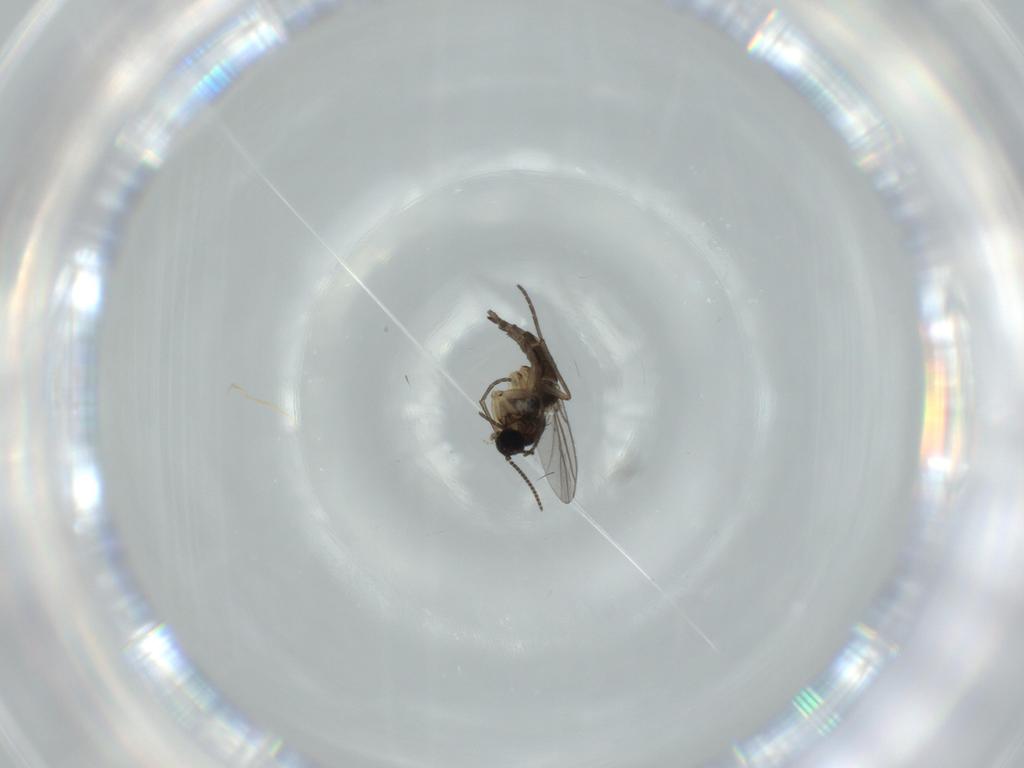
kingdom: Animalia
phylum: Arthropoda
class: Insecta
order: Diptera
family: Sciaridae
